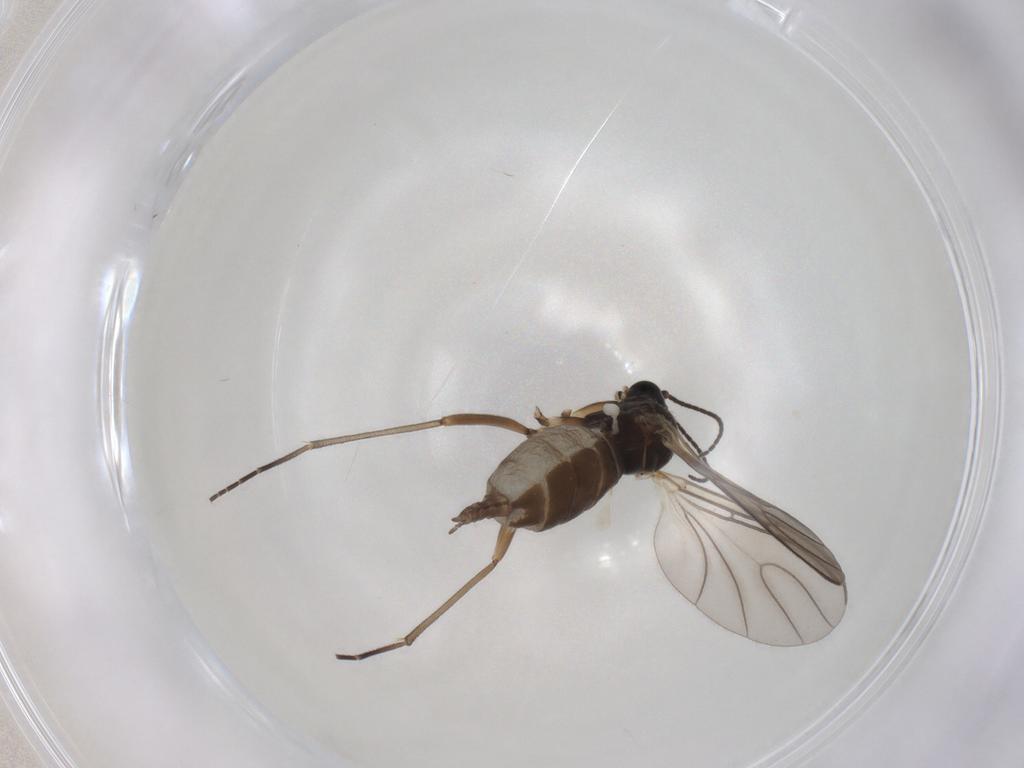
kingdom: Animalia
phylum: Arthropoda
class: Insecta
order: Diptera
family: Sciaridae
